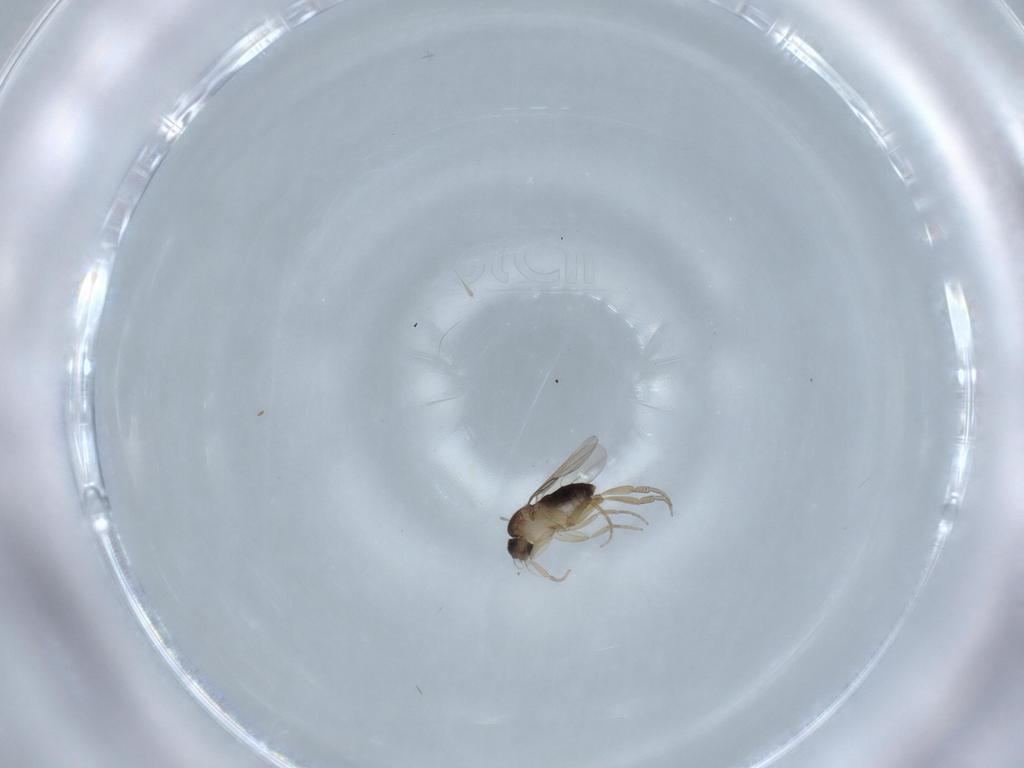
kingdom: Animalia
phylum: Arthropoda
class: Insecta
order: Diptera
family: Phoridae
